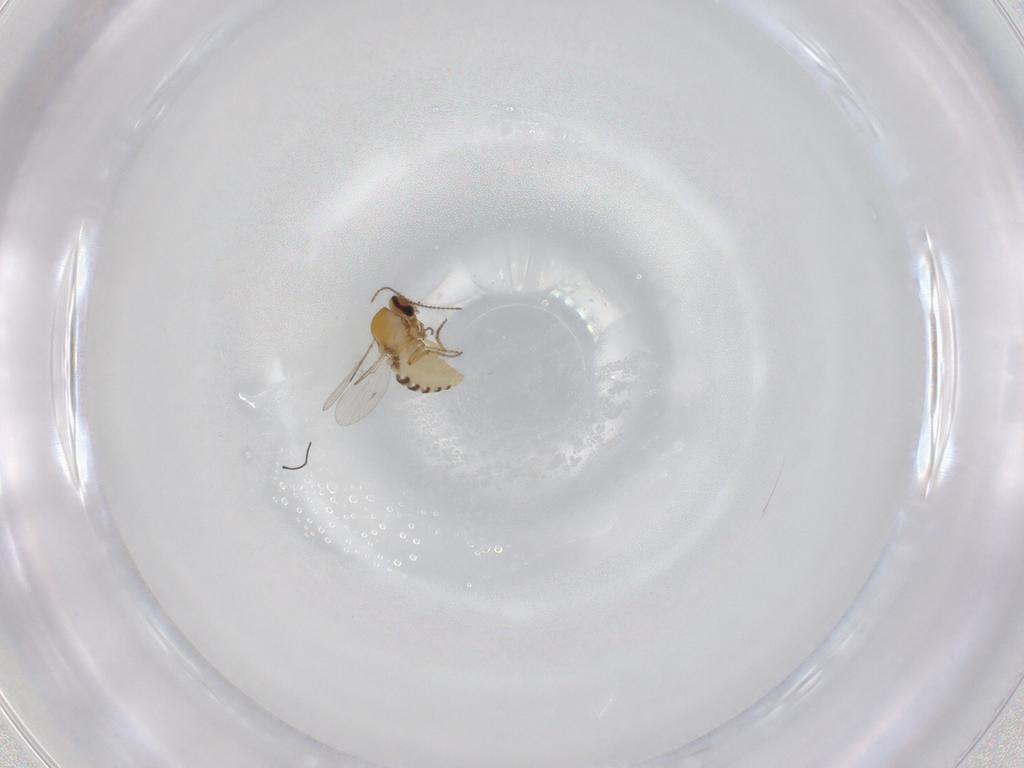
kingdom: Animalia
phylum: Arthropoda
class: Insecta
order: Diptera
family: Ceratopogonidae
